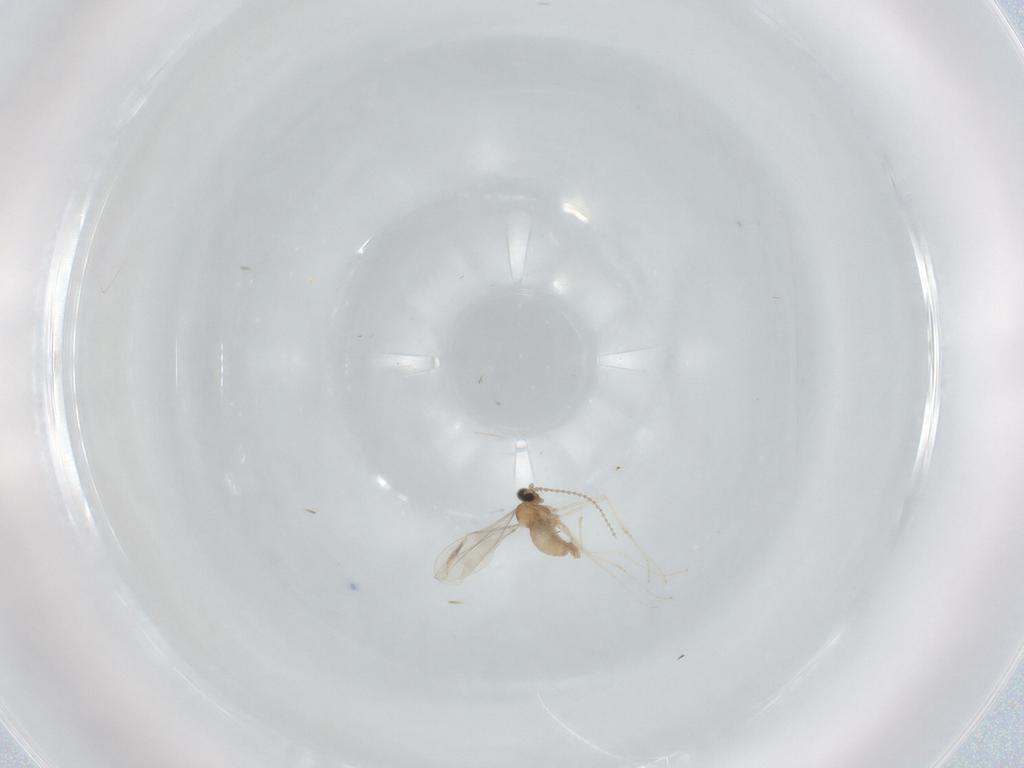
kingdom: Animalia
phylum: Arthropoda
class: Insecta
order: Diptera
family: Cecidomyiidae
